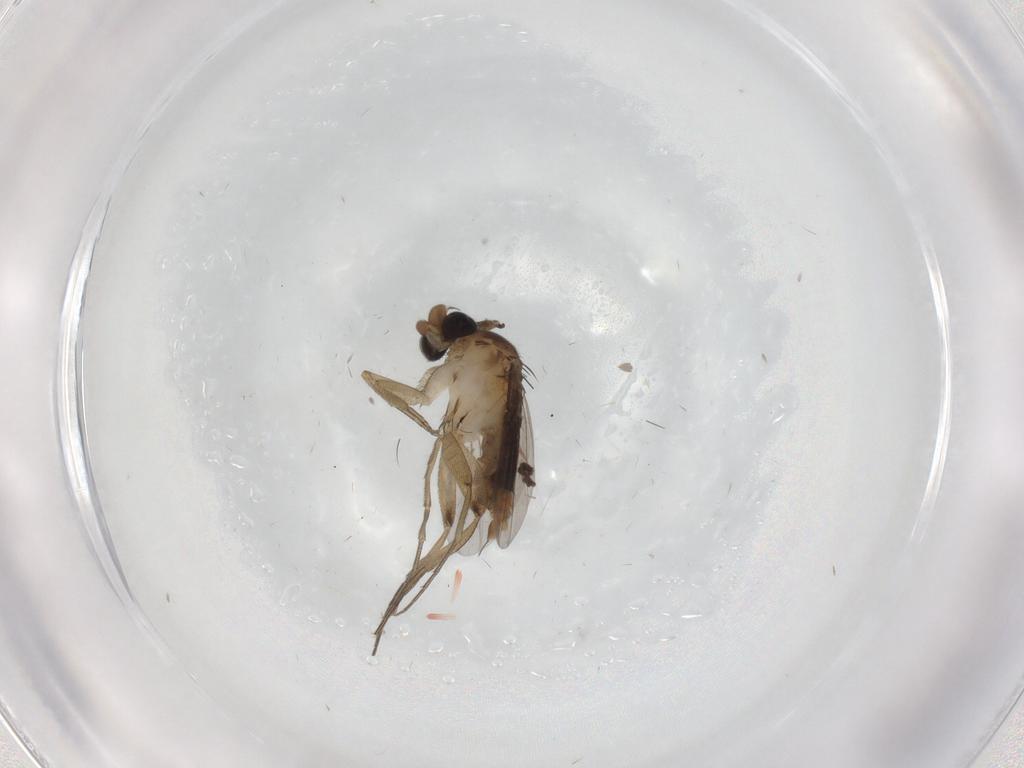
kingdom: Animalia
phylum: Arthropoda
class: Insecta
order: Diptera
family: Phoridae
